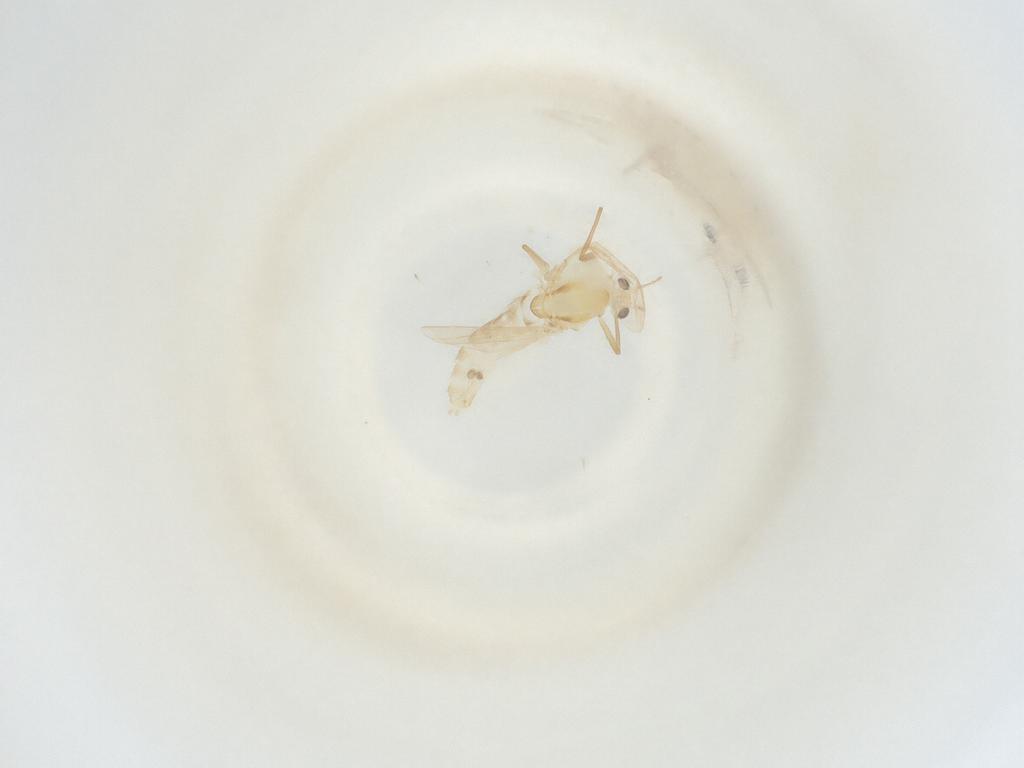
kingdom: Animalia
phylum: Arthropoda
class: Insecta
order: Diptera
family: Chironomidae
